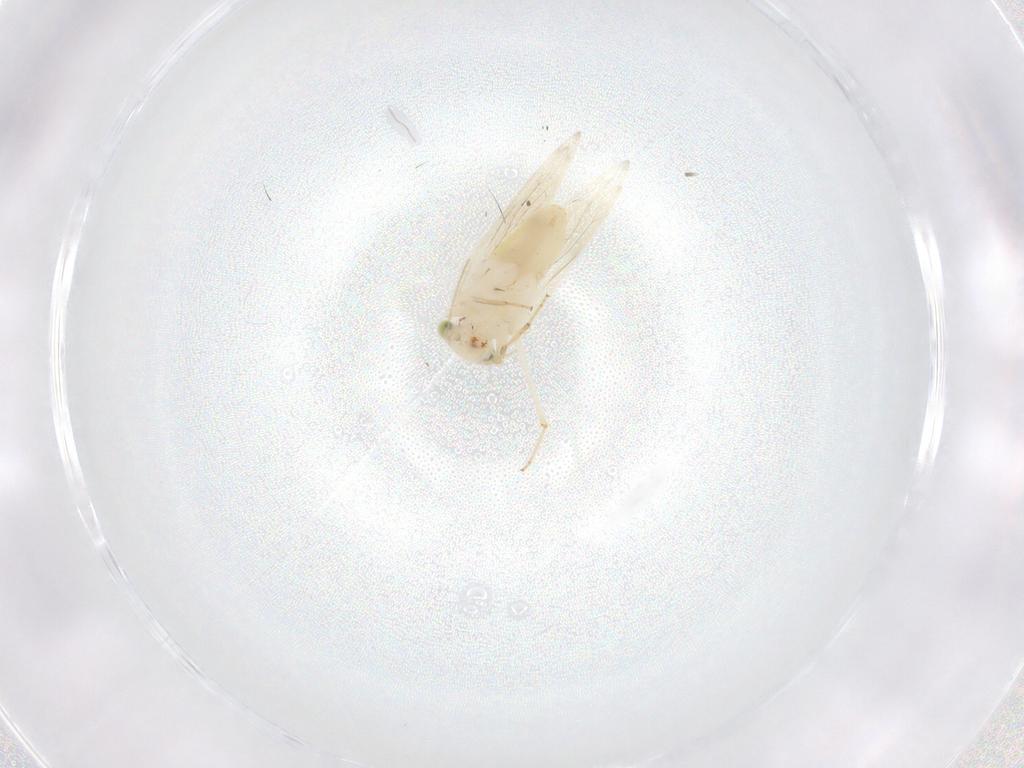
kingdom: Animalia
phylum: Arthropoda
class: Insecta
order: Psocodea
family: Lepidopsocidae
